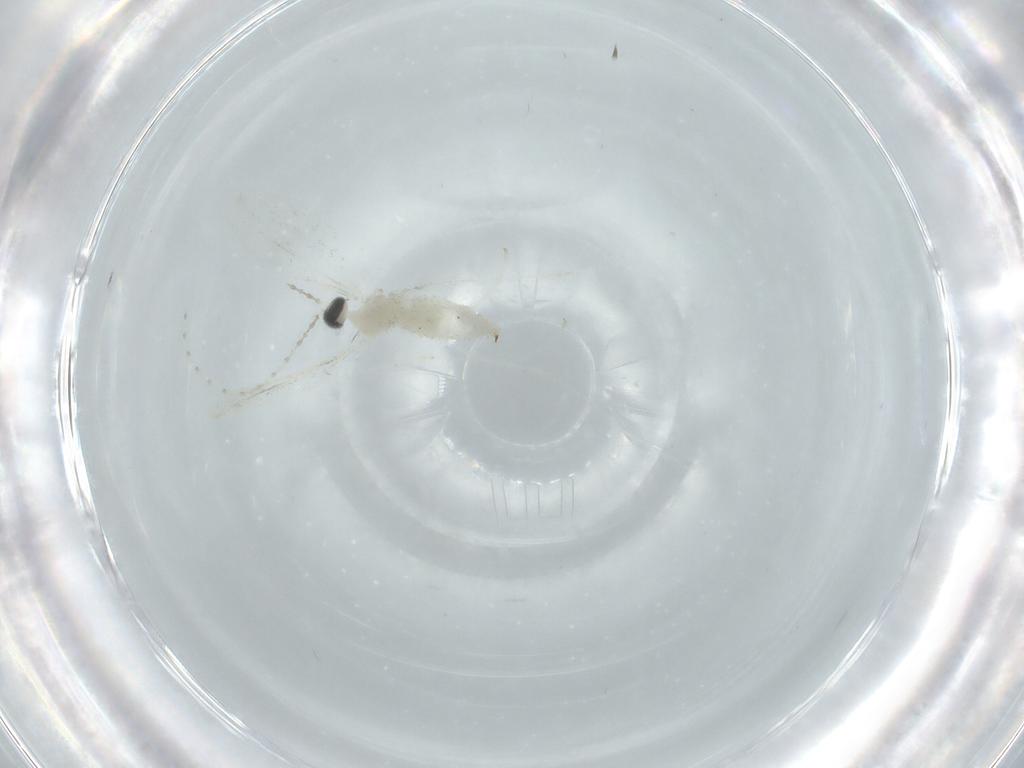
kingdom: Animalia
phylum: Arthropoda
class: Insecta
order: Diptera
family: Cecidomyiidae
